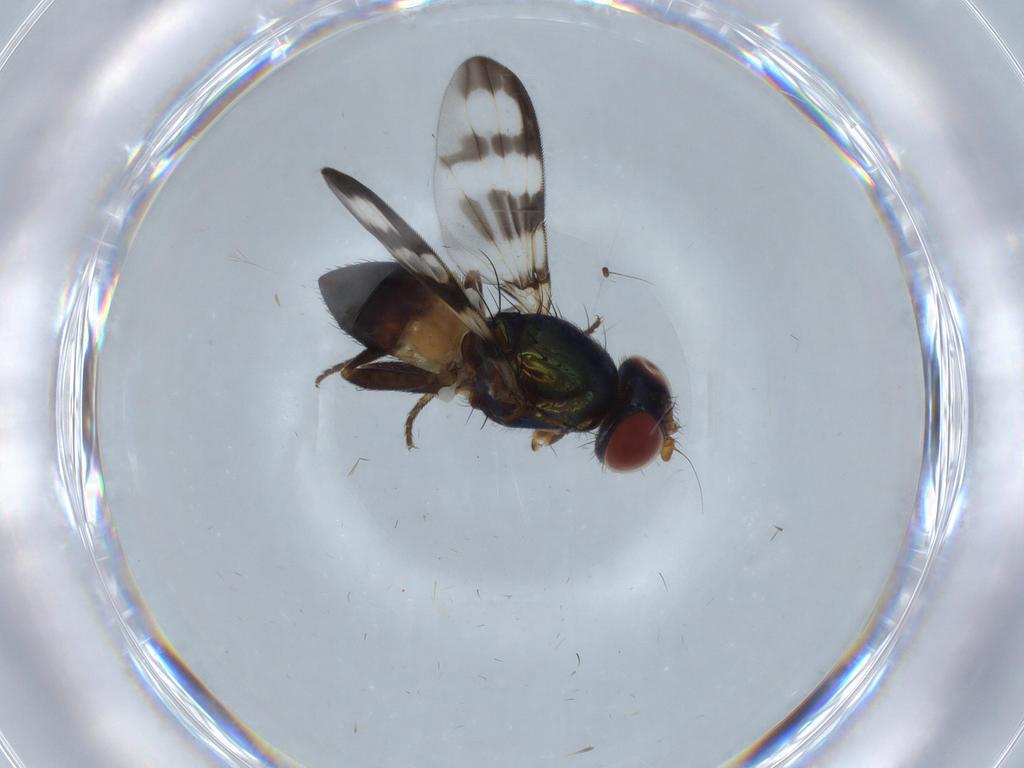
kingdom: Animalia
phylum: Arthropoda
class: Insecta
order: Diptera
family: Ulidiidae
